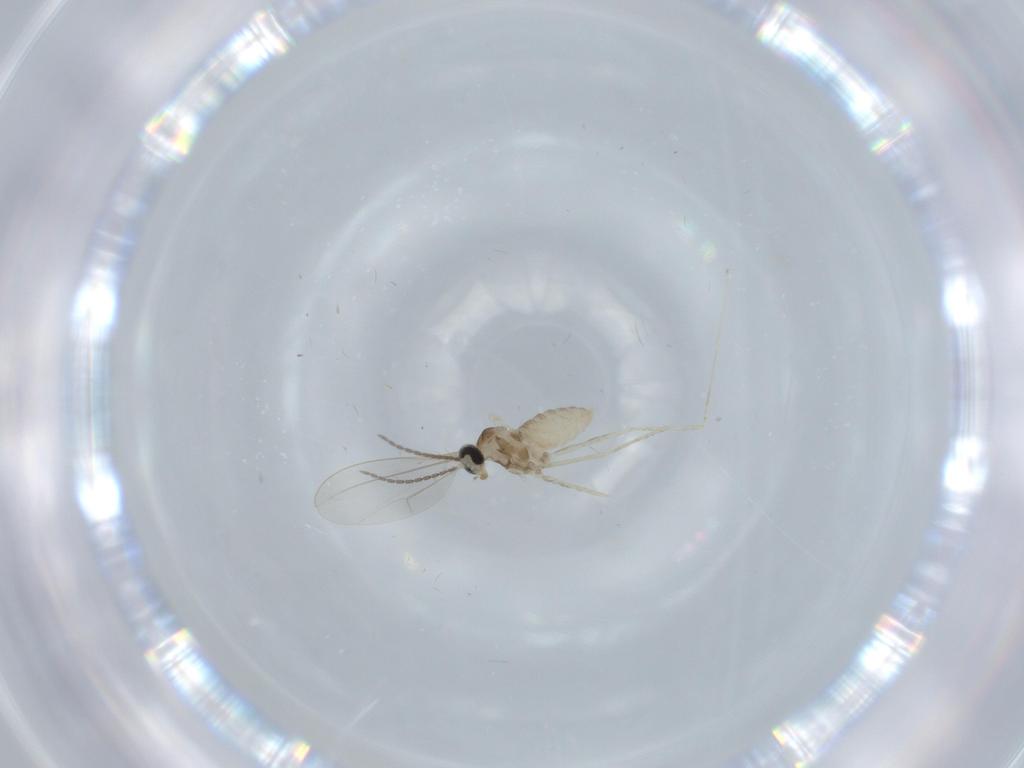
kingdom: Animalia
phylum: Arthropoda
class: Insecta
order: Diptera
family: Cecidomyiidae
